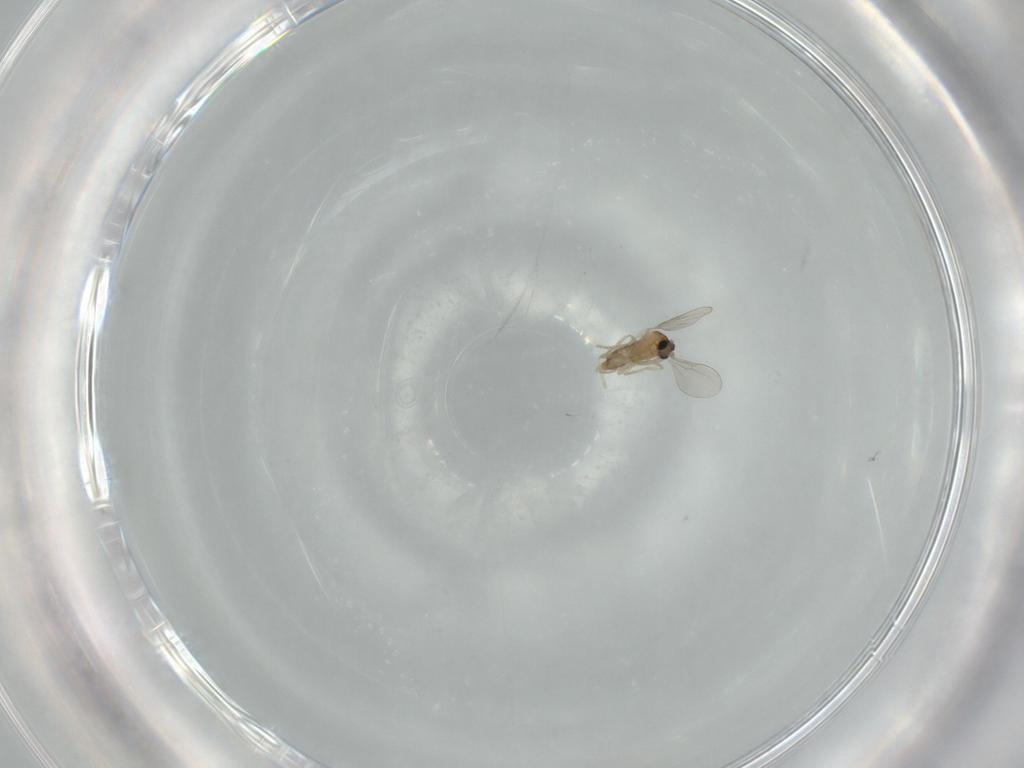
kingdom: Animalia
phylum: Arthropoda
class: Insecta
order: Diptera
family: Cecidomyiidae
